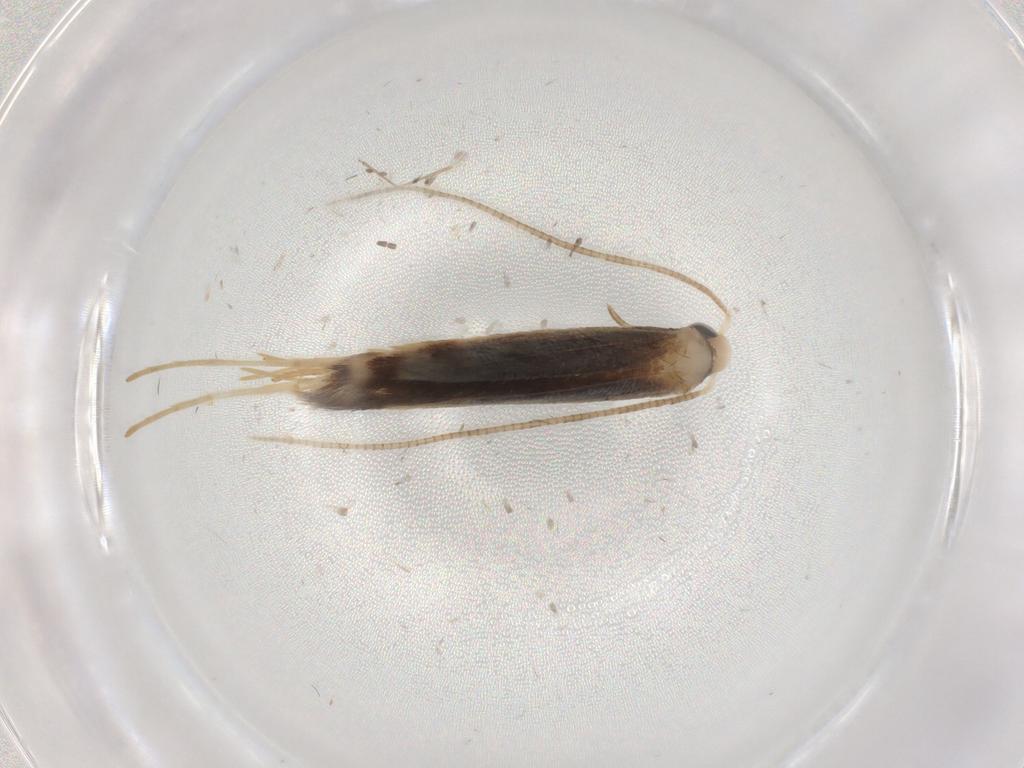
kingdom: Animalia
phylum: Arthropoda
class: Insecta
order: Lepidoptera
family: Gracillariidae
